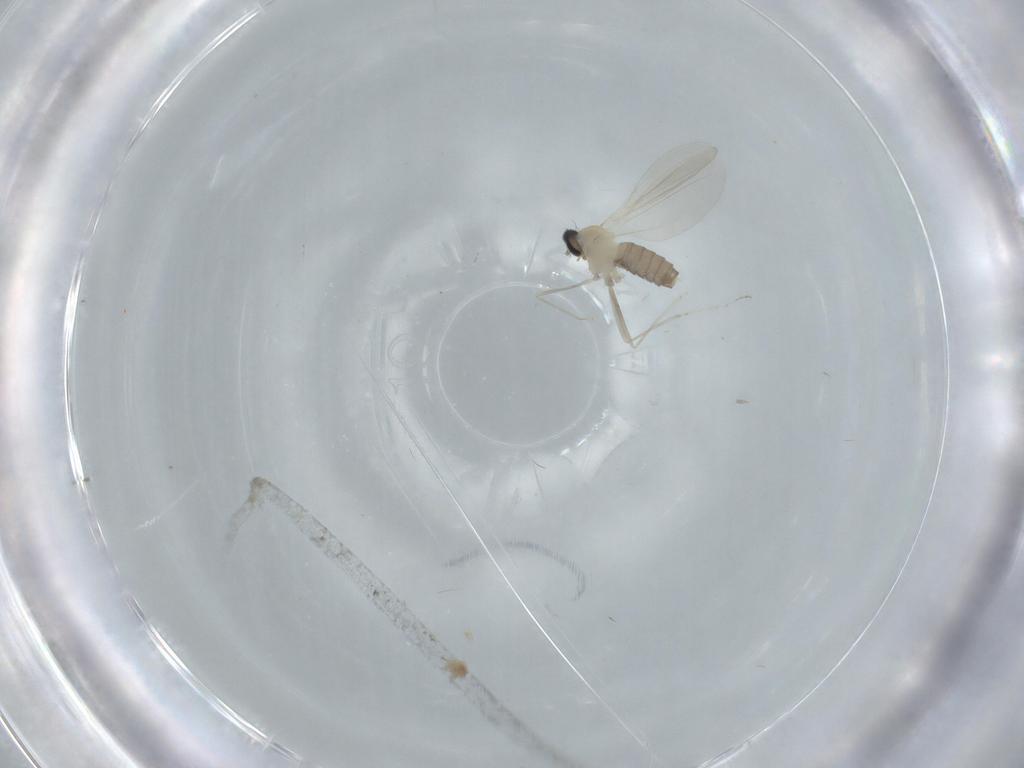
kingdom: Animalia
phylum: Arthropoda
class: Insecta
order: Diptera
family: Cecidomyiidae
